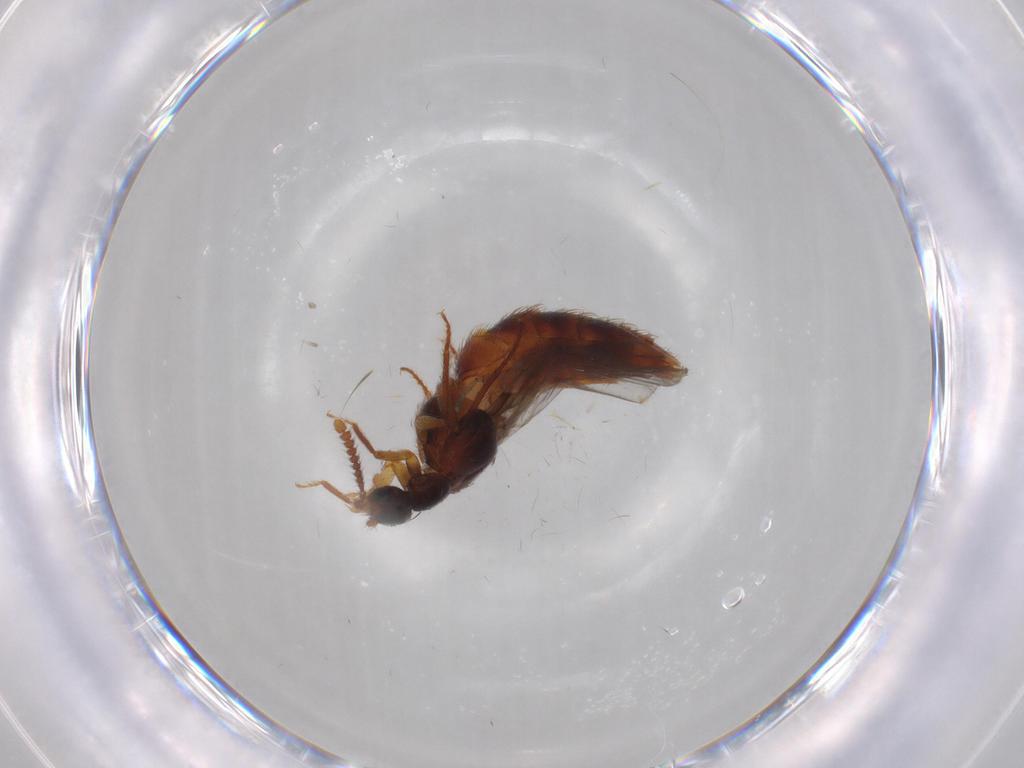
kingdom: Animalia
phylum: Arthropoda
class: Insecta
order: Coleoptera
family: Staphylinidae
